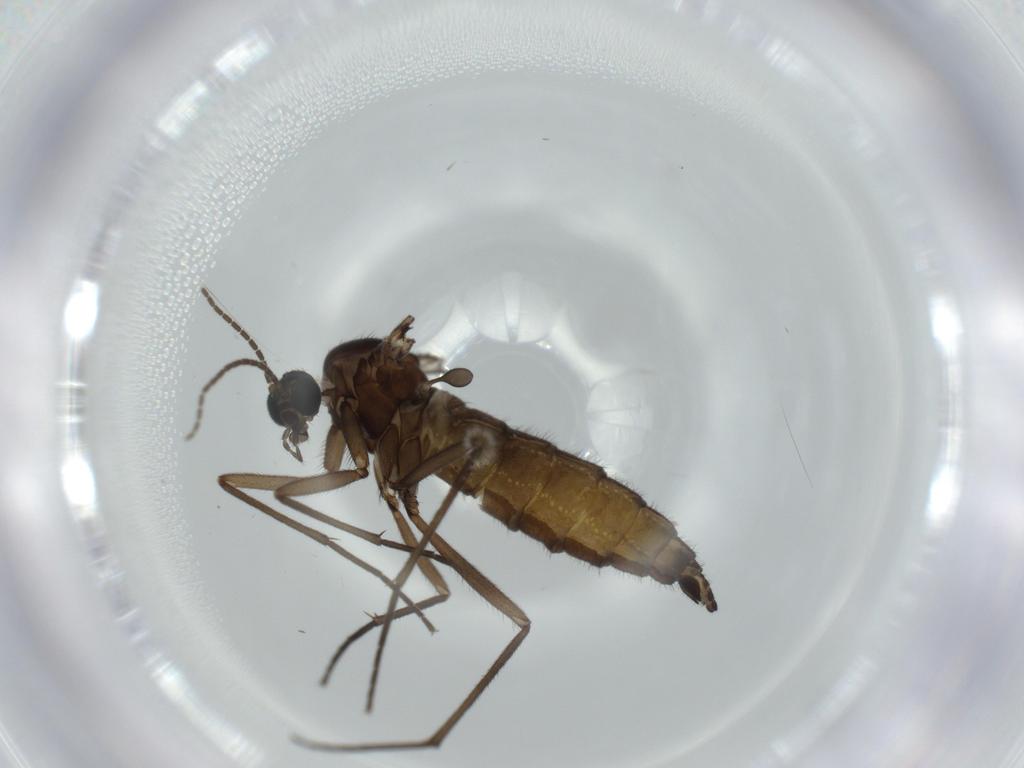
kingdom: Animalia
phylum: Arthropoda
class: Insecta
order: Diptera
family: Sciaridae
